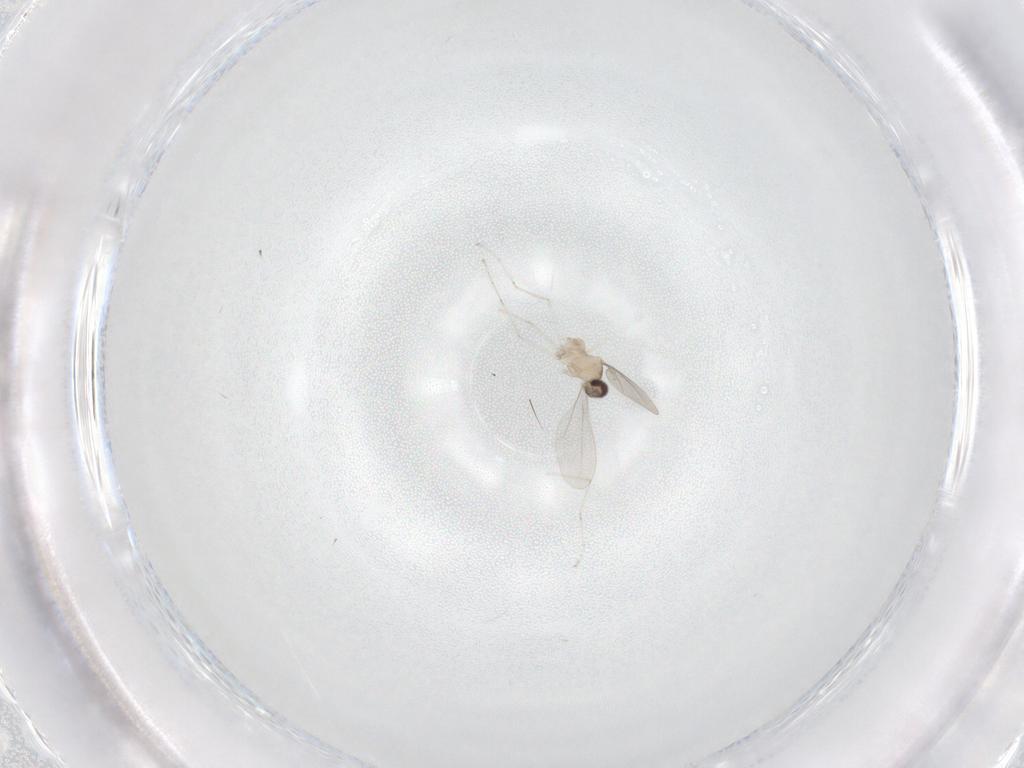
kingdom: Animalia
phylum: Arthropoda
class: Insecta
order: Diptera
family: Cecidomyiidae
